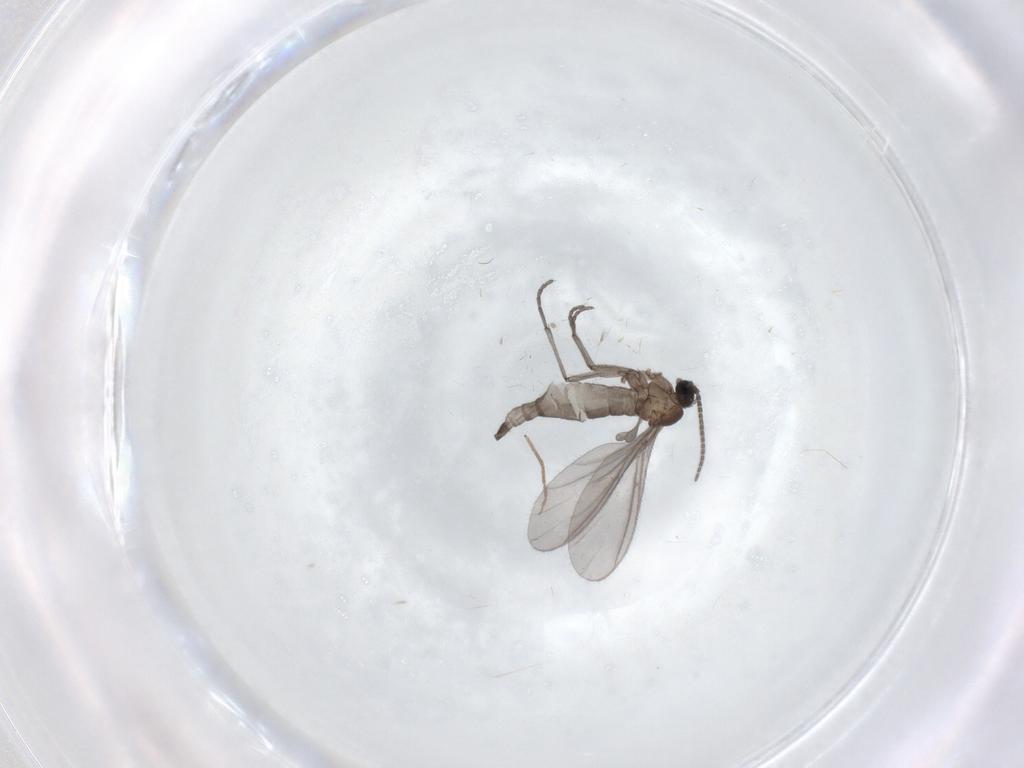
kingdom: Animalia
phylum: Arthropoda
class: Insecta
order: Diptera
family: Sciaridae
